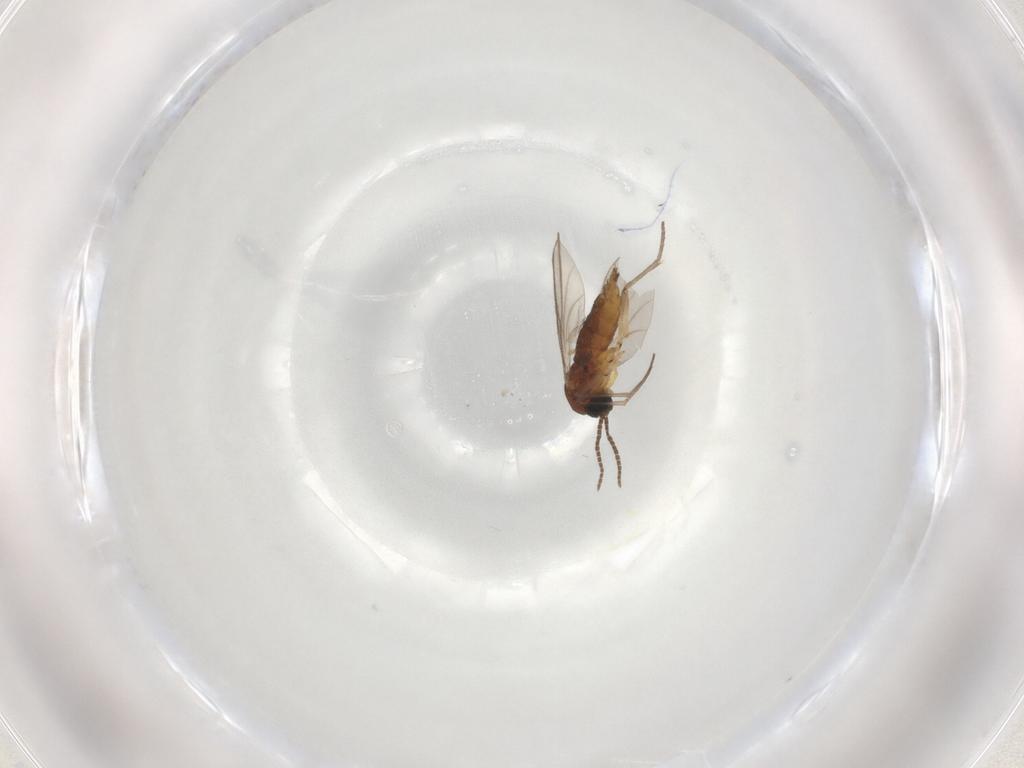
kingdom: Animalia
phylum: Arthropoda
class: Insecta
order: Diptera
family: Sciaridae
